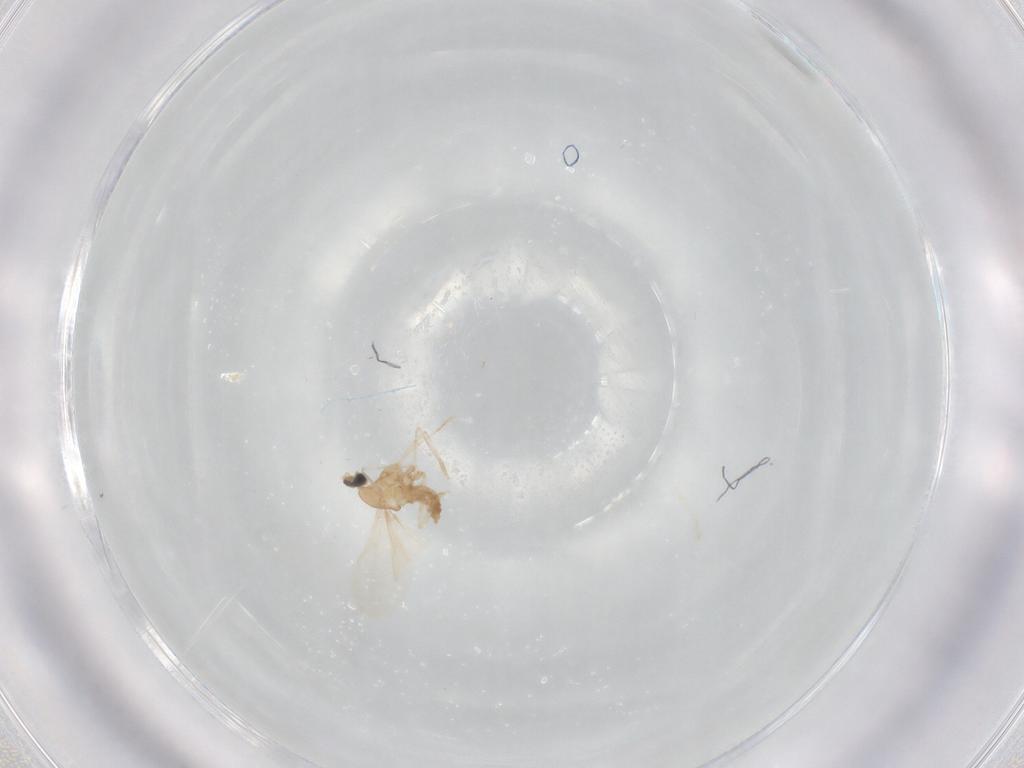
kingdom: Animalia
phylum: Arthropoda
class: Insecta
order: Diptera
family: Cecidomyiidae
